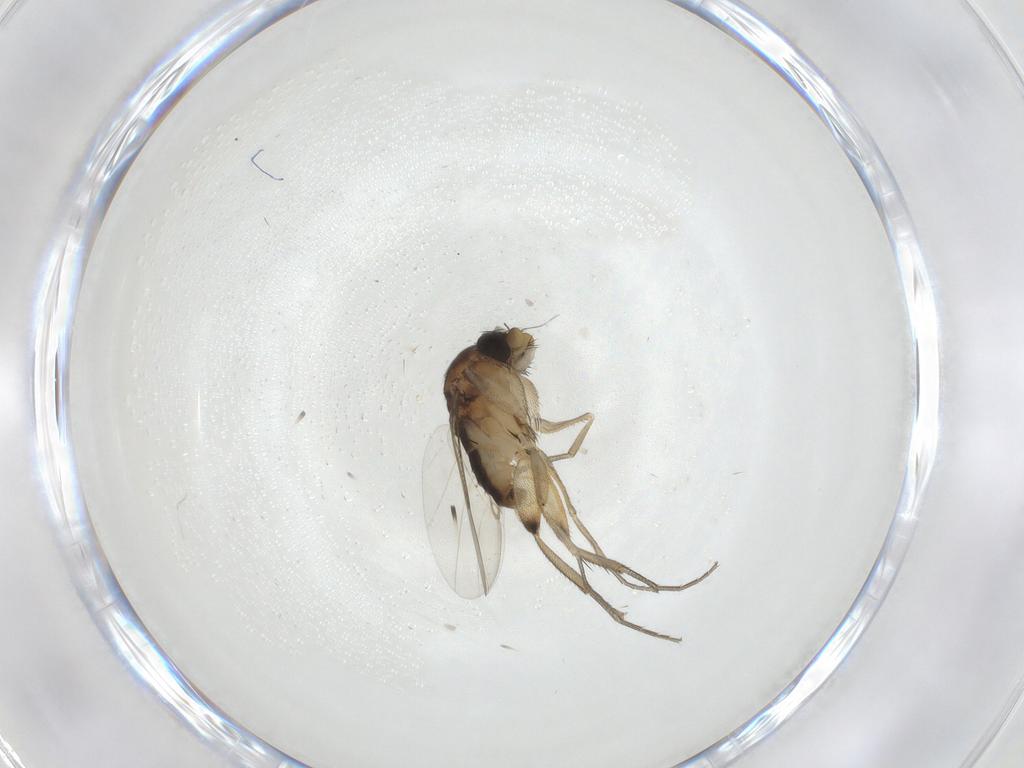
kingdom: Animalia
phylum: Arthropoda
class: Insecta
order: Diptera
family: Phoridae
